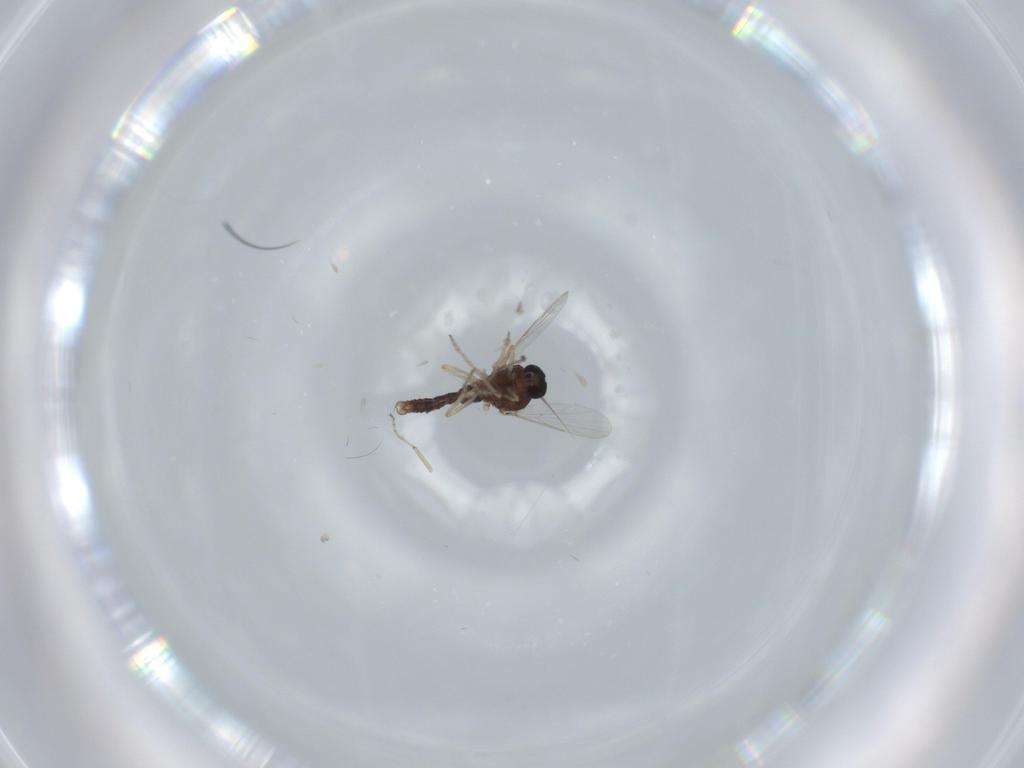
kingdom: Animalia
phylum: Arthropoda
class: Insecta
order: Diptera
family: Ceratopogonidae
